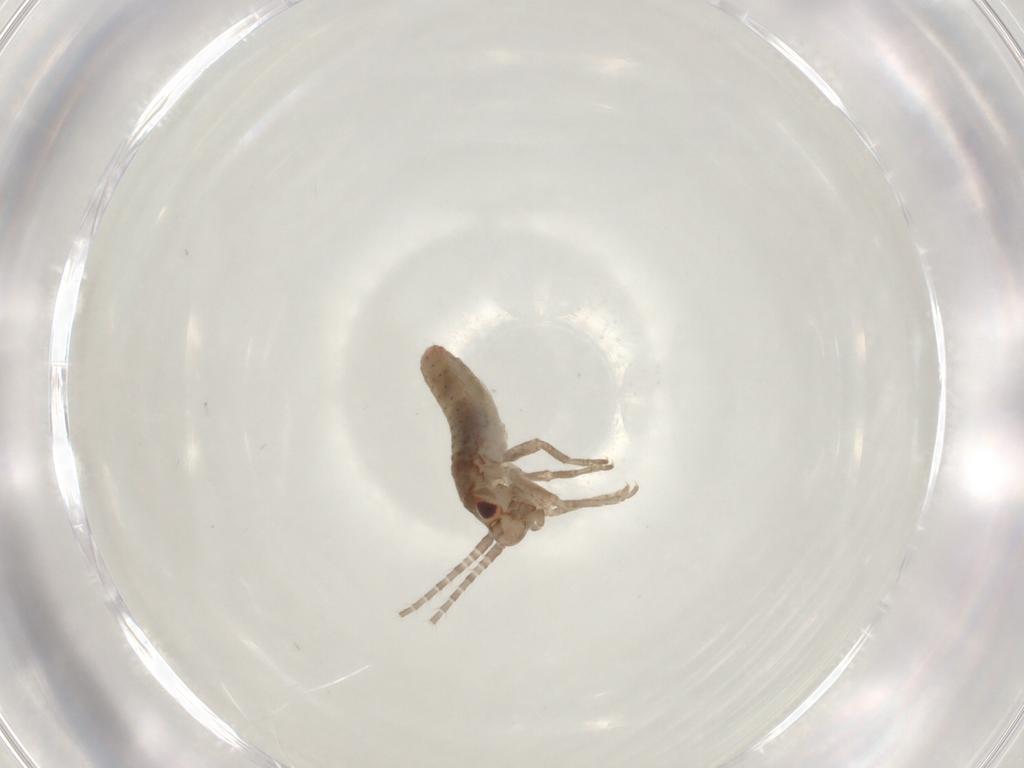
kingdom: Animalia
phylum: Arthropoda
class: Insecta
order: Orthoptera
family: Mogoplistidae
